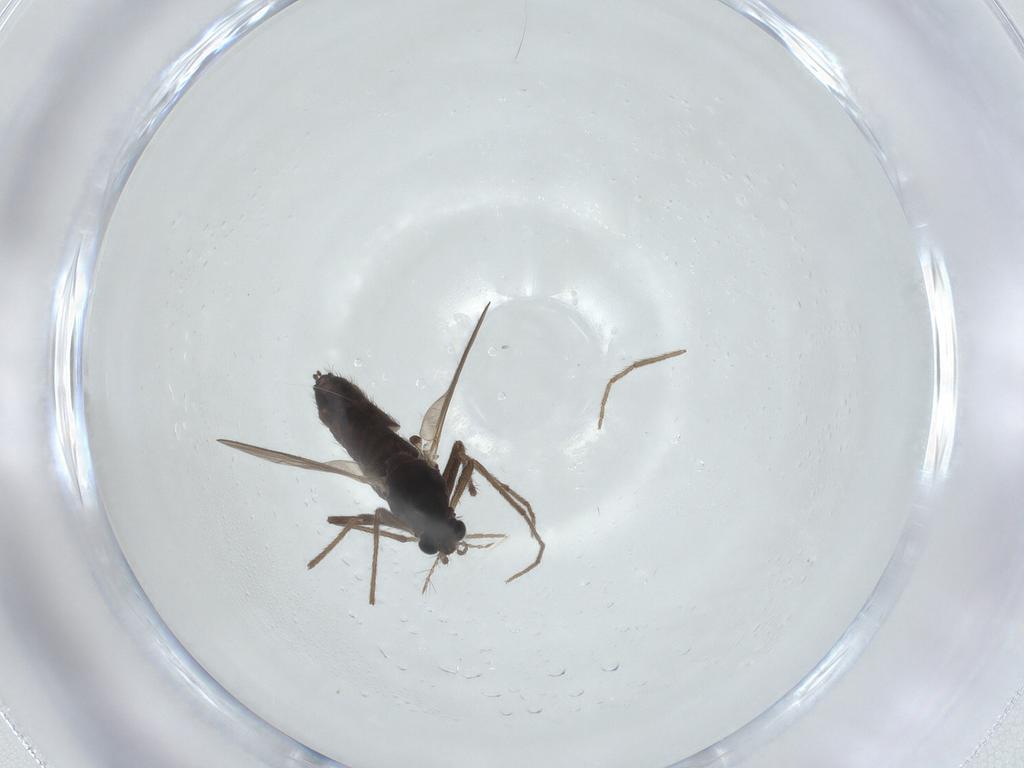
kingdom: Animalia
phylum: Arthropoda
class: Insecta
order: Diptera
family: Chironomidae
